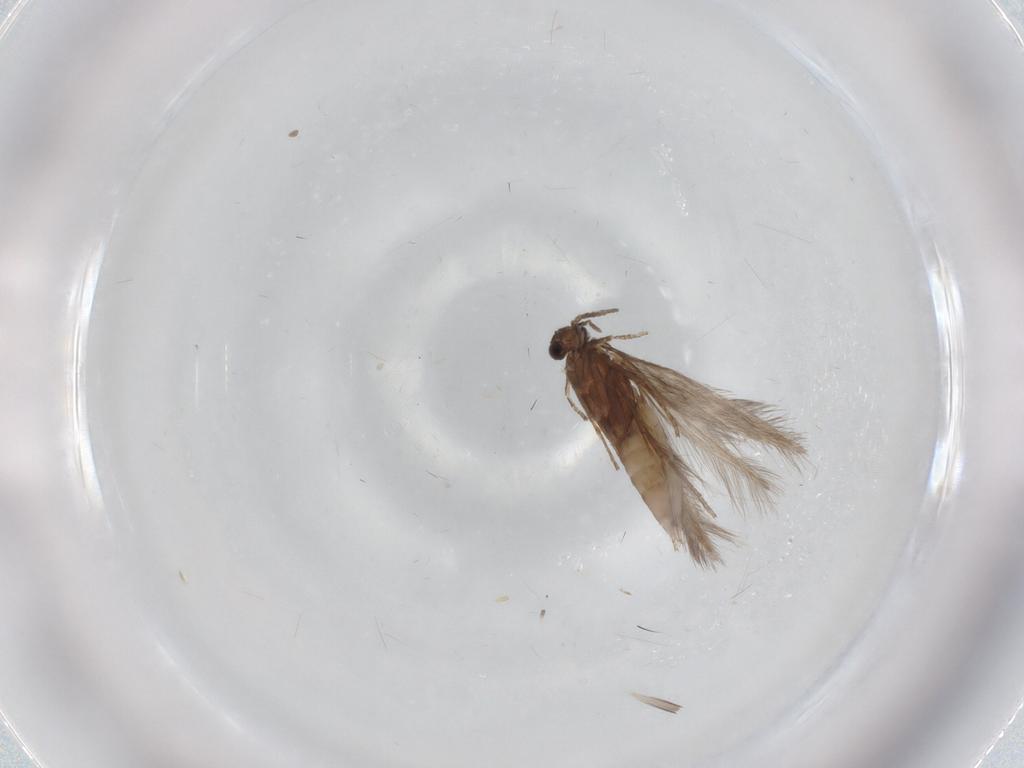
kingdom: Animalia
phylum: Arthropoda
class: Insecta
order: Trichoptera
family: Hydroptilidae
